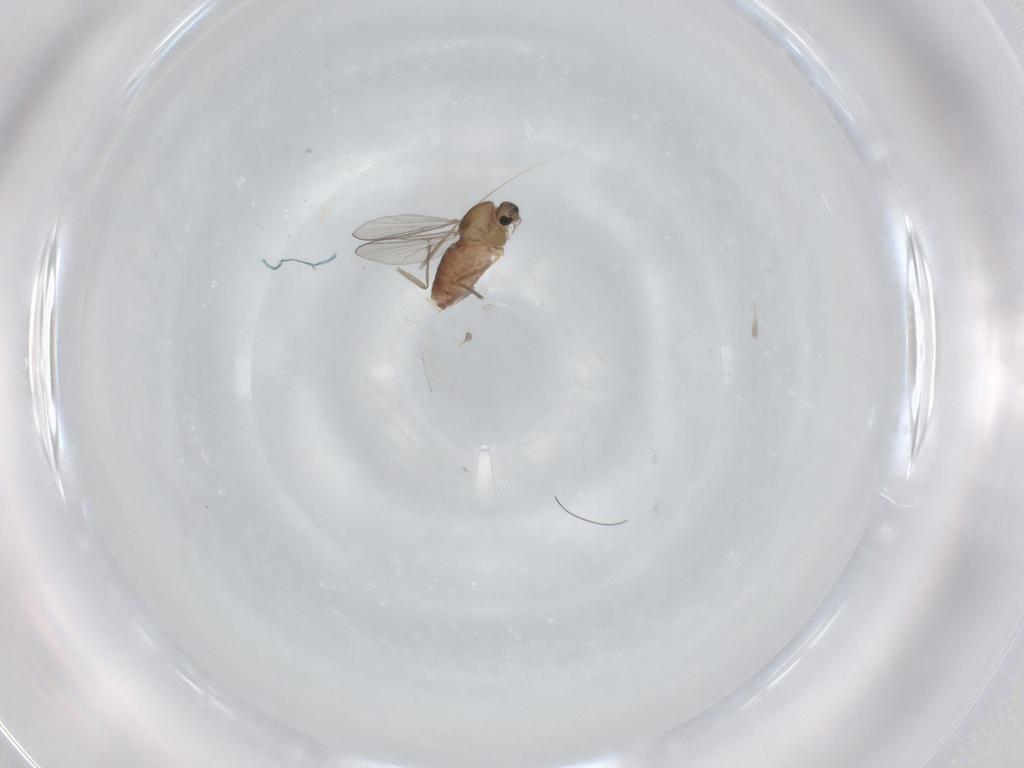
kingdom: Animalia
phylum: Arthropoda
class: Insecta
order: Diptera
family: Chironomidae
